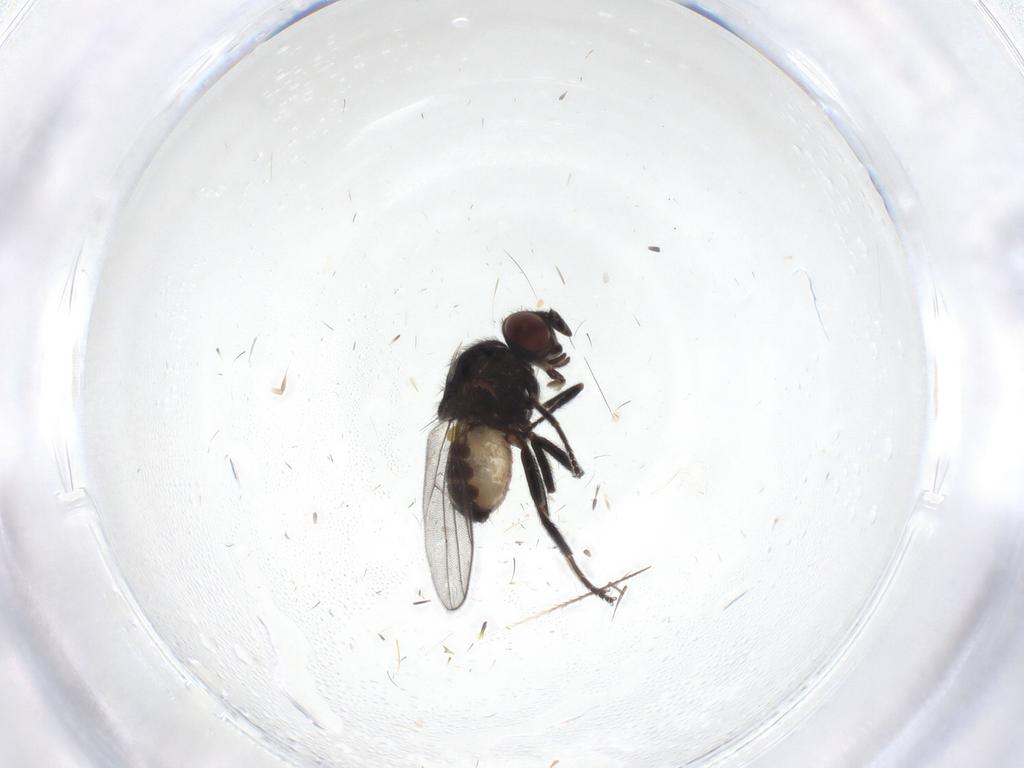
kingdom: Animalia
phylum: Arthropoda
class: Insecta
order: Diptera
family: Chloropidae
